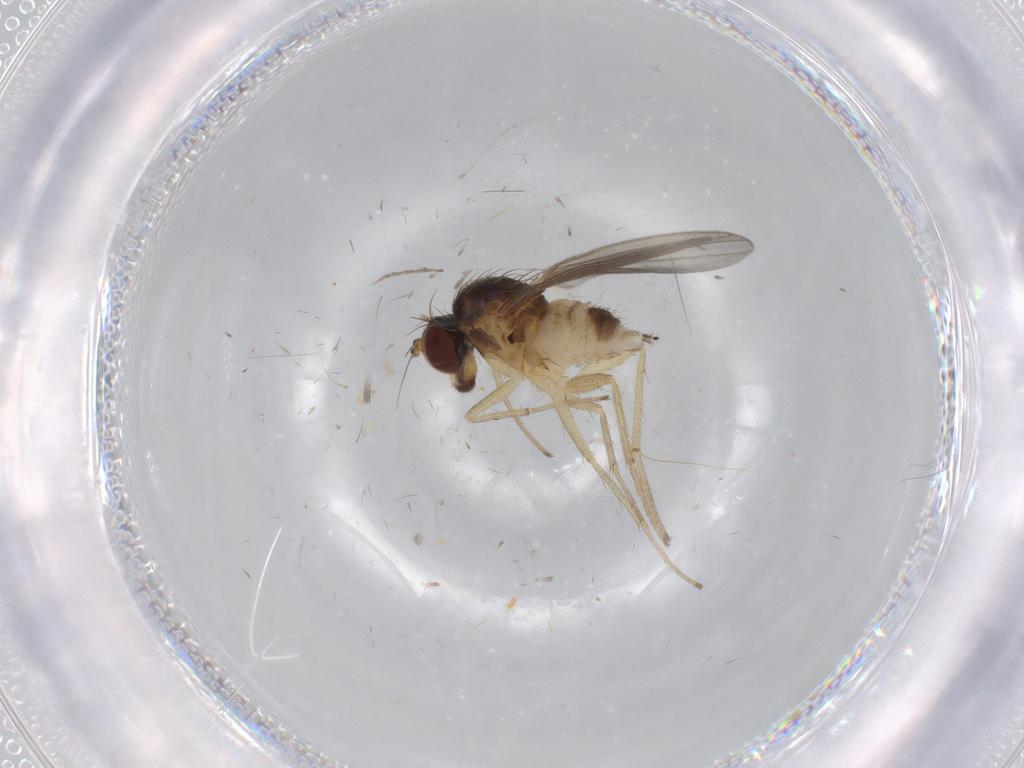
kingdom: Animalia
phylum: Arthropoda
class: Insecta
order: Diptera
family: Dolichopodidae
